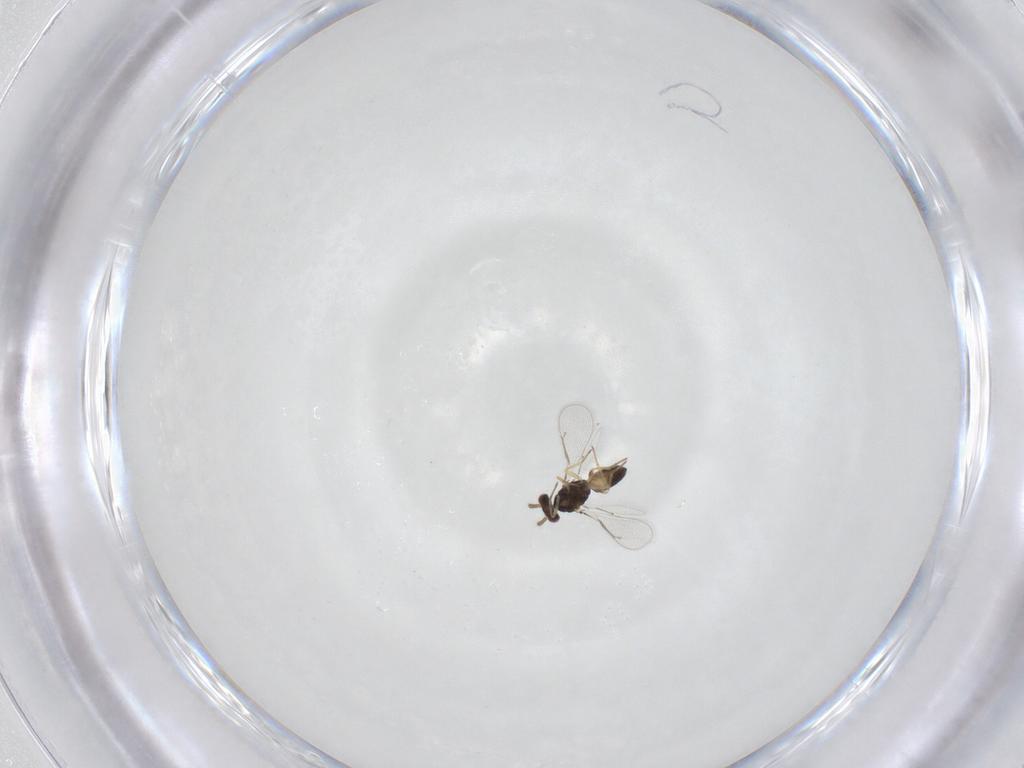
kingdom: Animalia
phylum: Arthropoda
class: Insecta
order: Hymenoptera
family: Eulophidae
